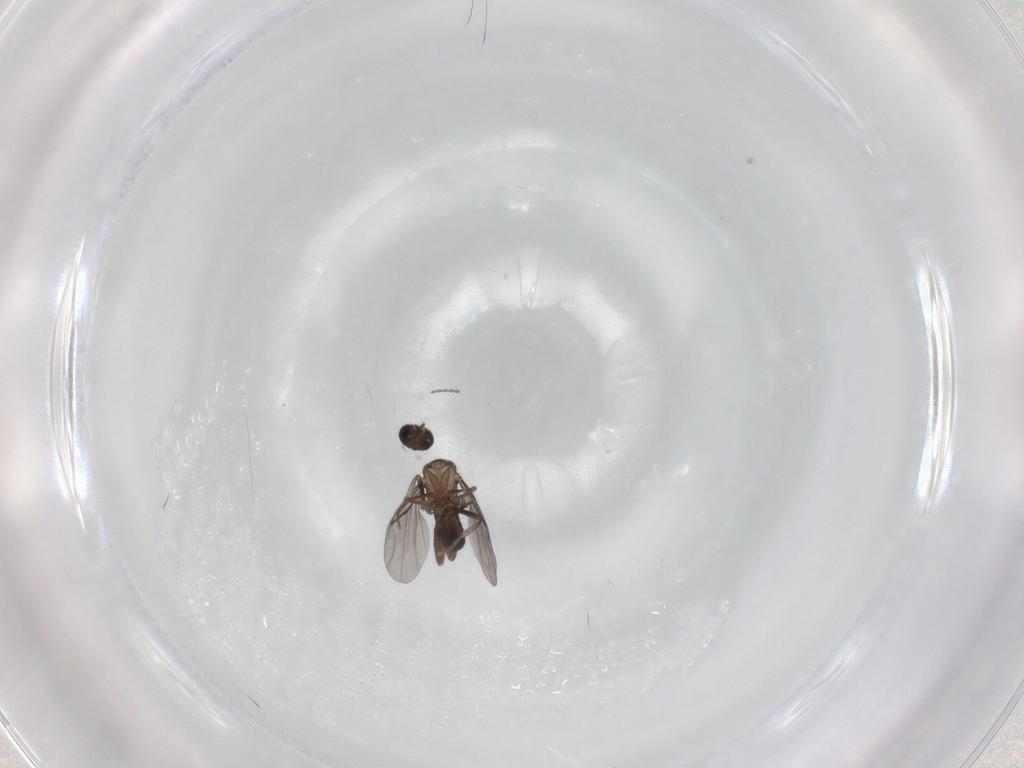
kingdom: Animalia
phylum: Arthropoda
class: Insecta
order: Diptera
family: Phoridae
